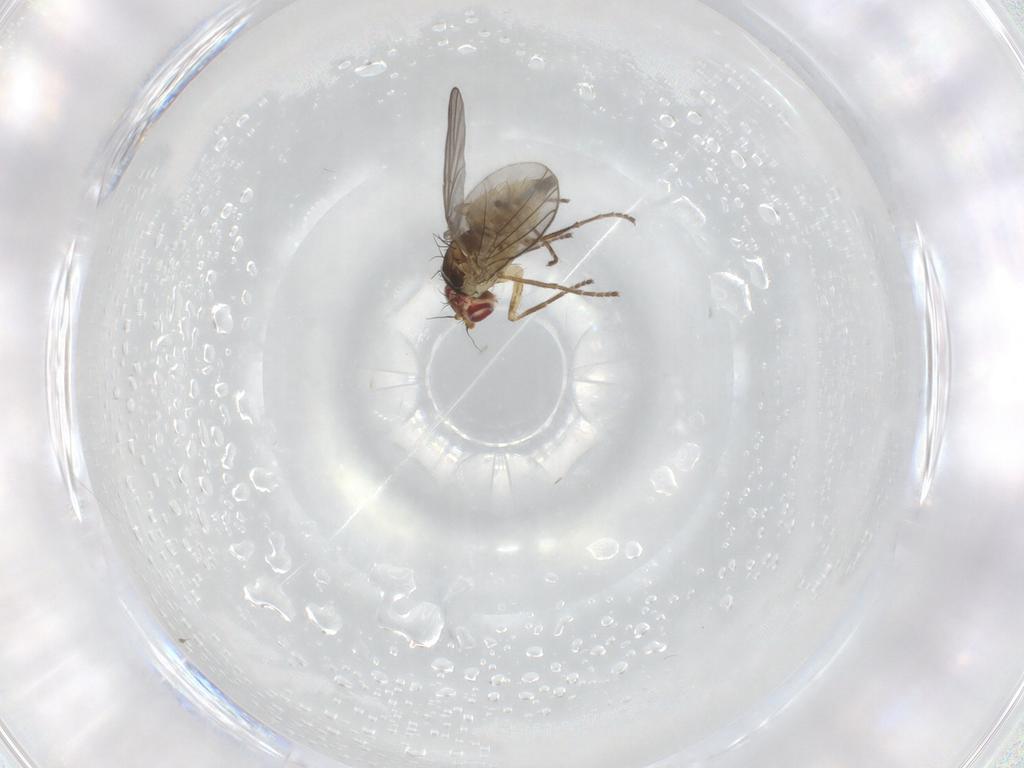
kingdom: Animalia
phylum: Arthropoda
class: Insecta
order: Diptera
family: Agromyzidae
